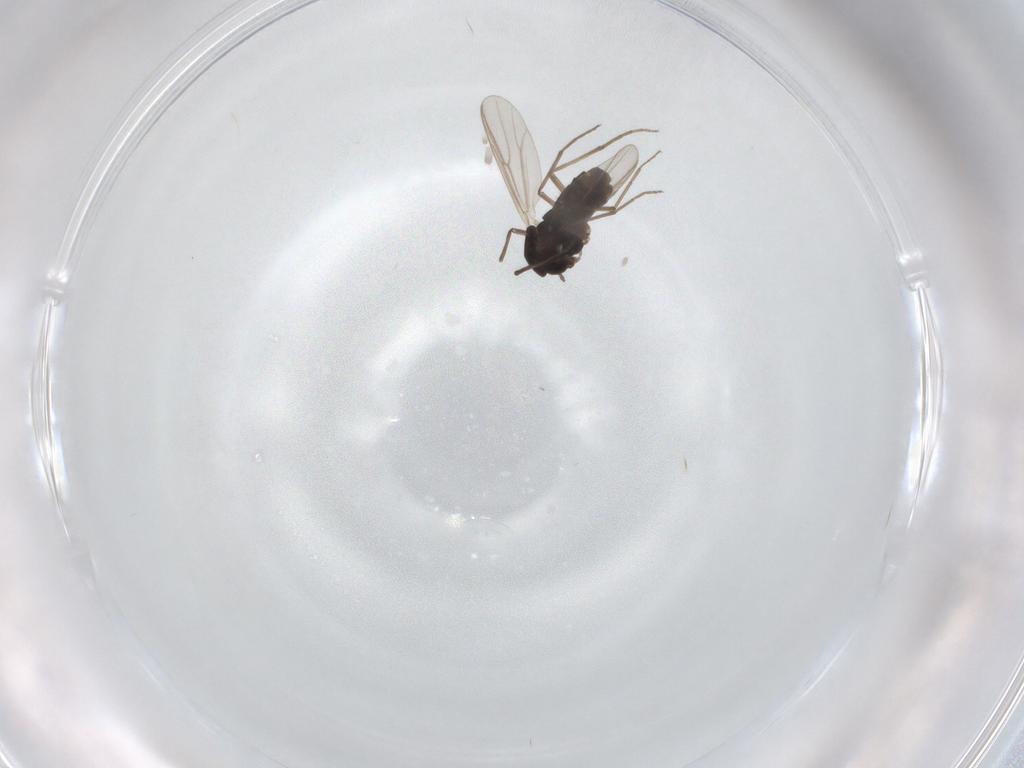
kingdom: Animalia
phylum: Arthropoda
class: Insecta
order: Diptera
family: Chironomidae
